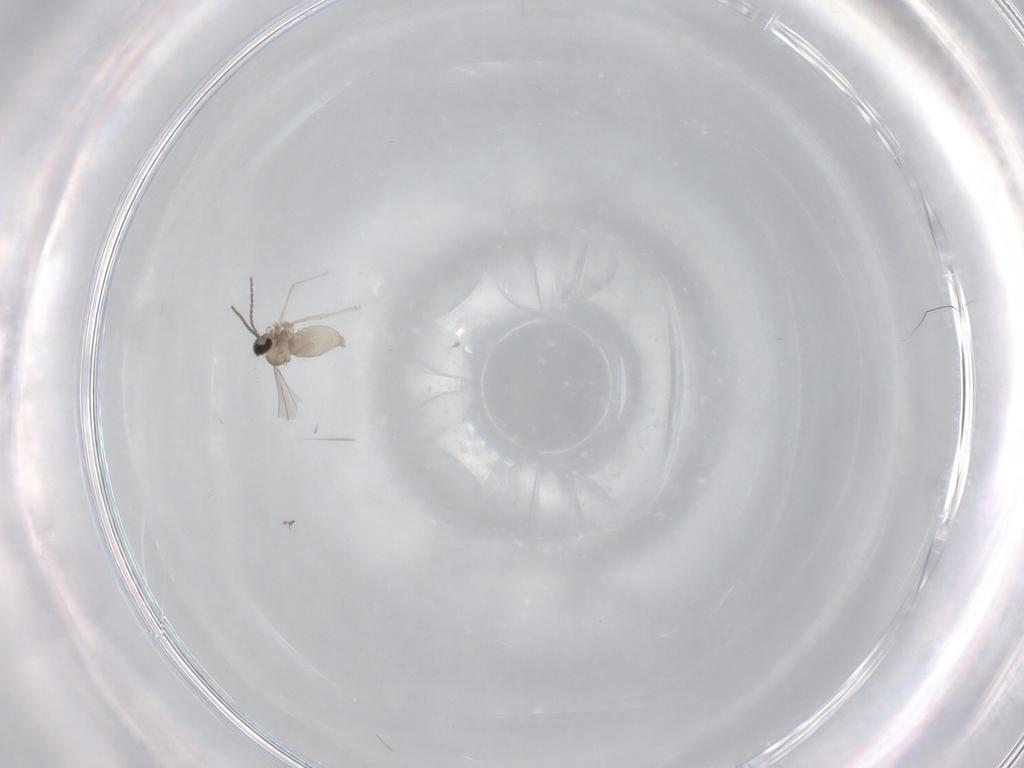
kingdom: Animalia
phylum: Arthropoda
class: Insecta
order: Diptera
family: Cecidomyiidae
